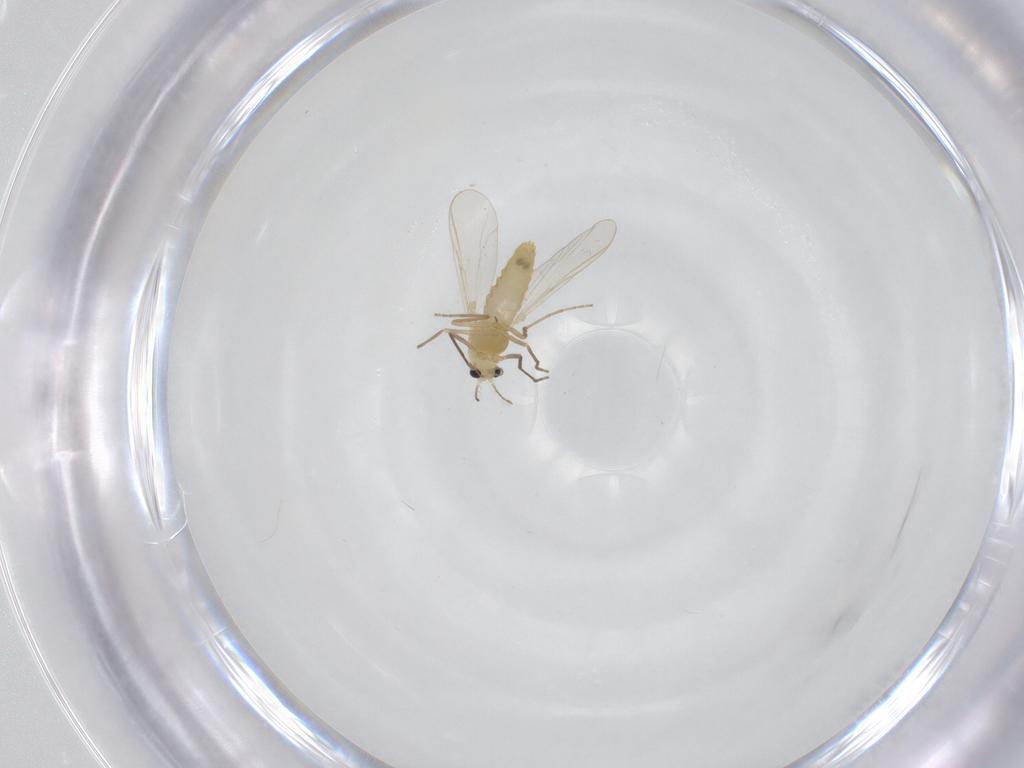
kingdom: Animalia
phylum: Arthropoda
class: Insecta
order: Diptera
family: Chironomidae
